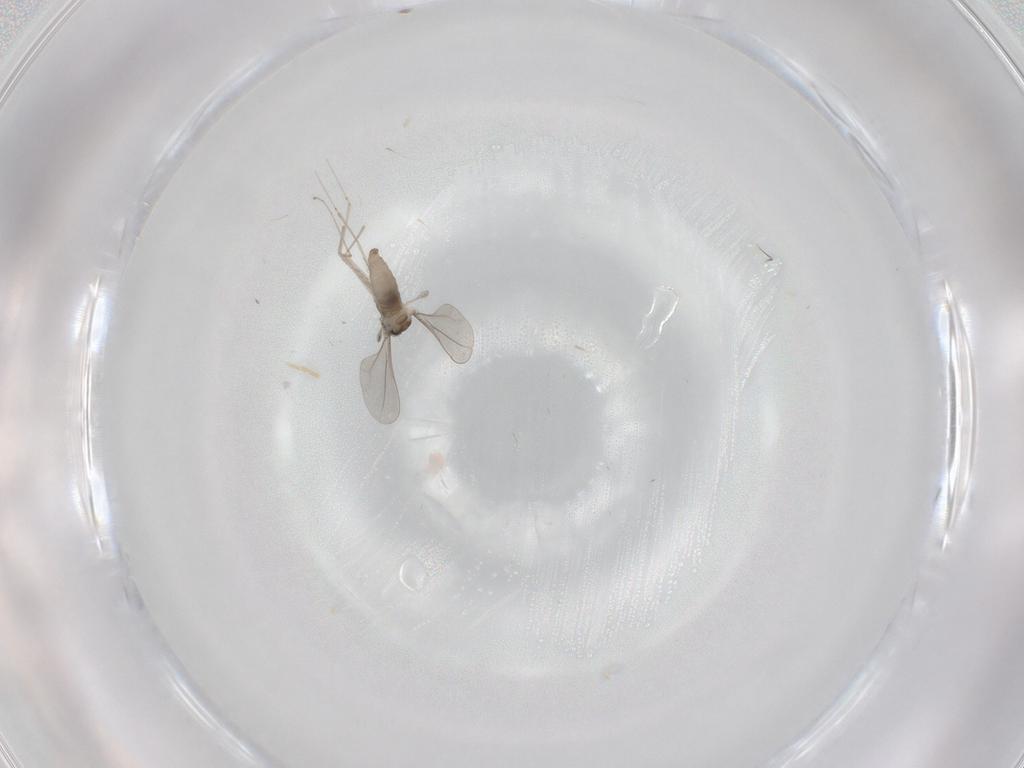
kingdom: Animalia
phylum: Arthropoda
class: Insecta
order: Diptera
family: Cecidomyiidae
